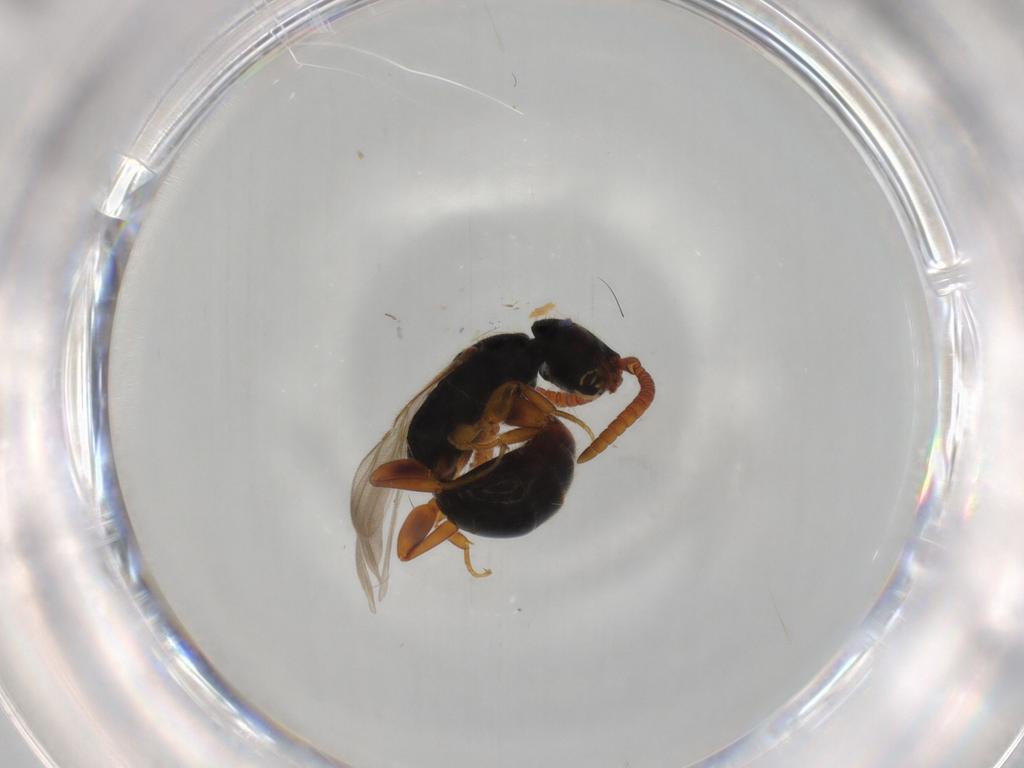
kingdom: Animalia
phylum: Arthropoda
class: Insecta
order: Hymenoptera
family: Bethylidae
